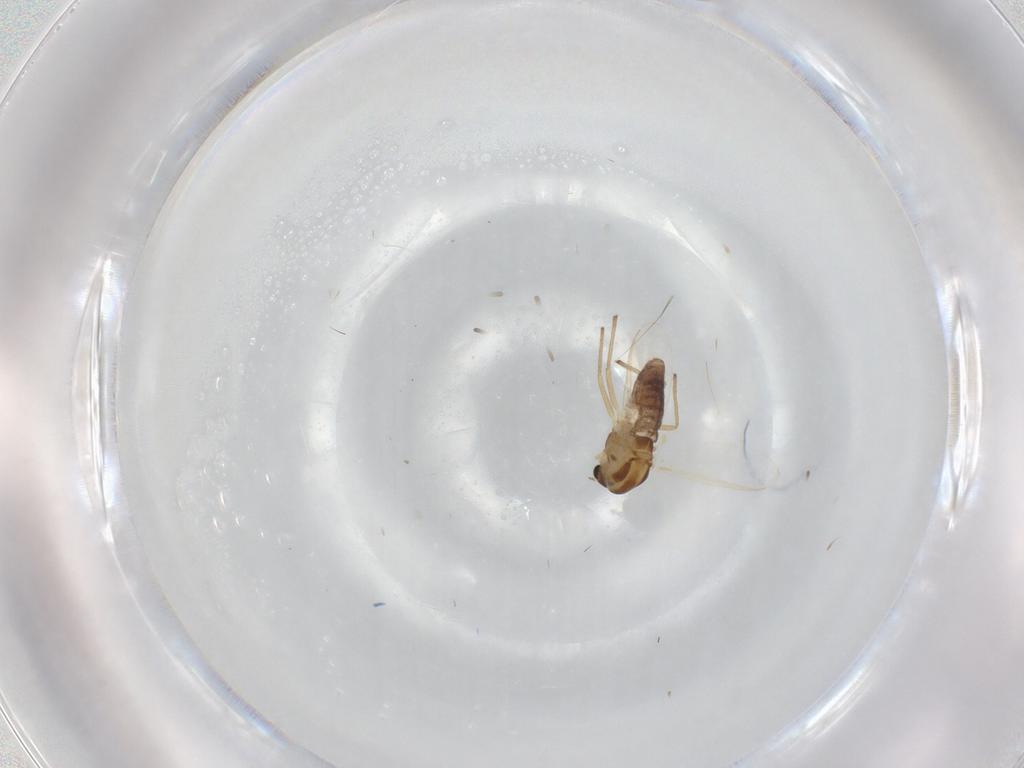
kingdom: Animalia
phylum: Arthropoda
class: Insecta
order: Diptera
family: Chironomidae
